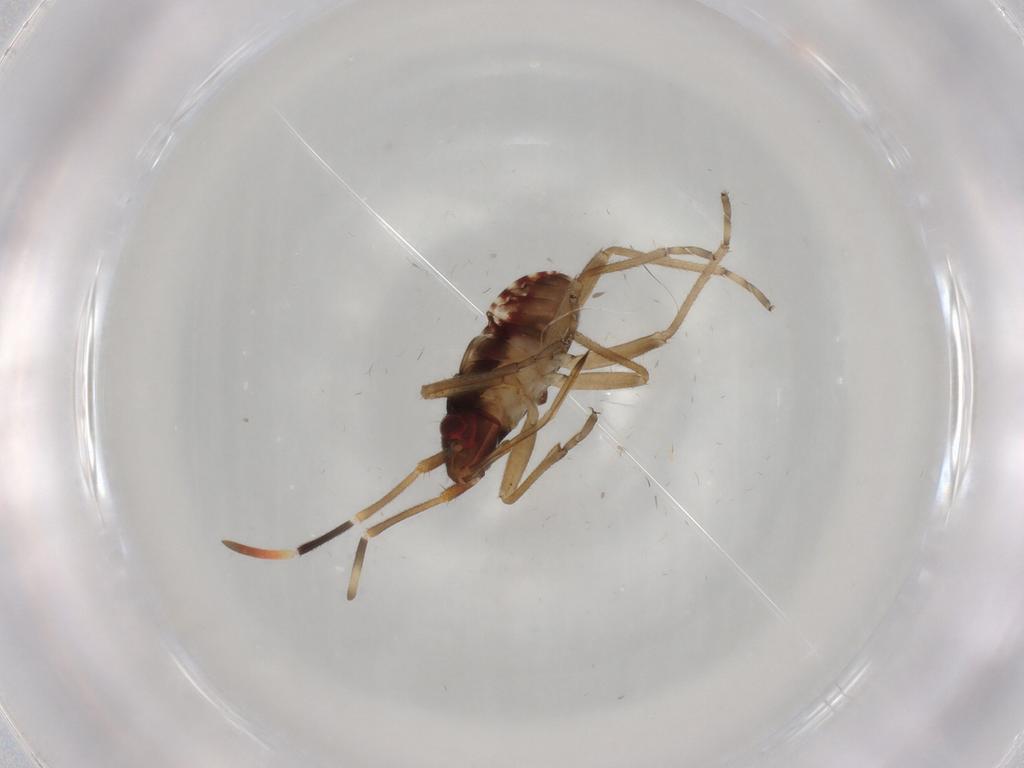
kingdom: Animalia
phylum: Arthropoda
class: Insecta
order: Hemiptera
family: Rhyparochromidae
